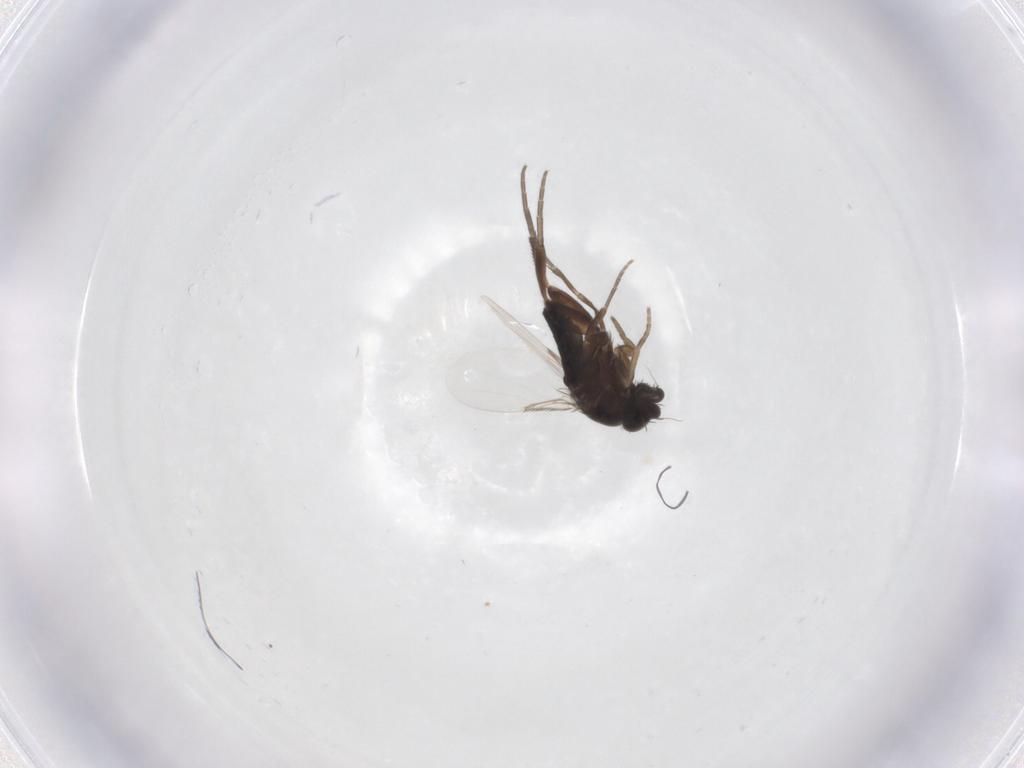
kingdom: Animalia
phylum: Arthropoda
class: Insecta
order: Diptera
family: Phoridae
